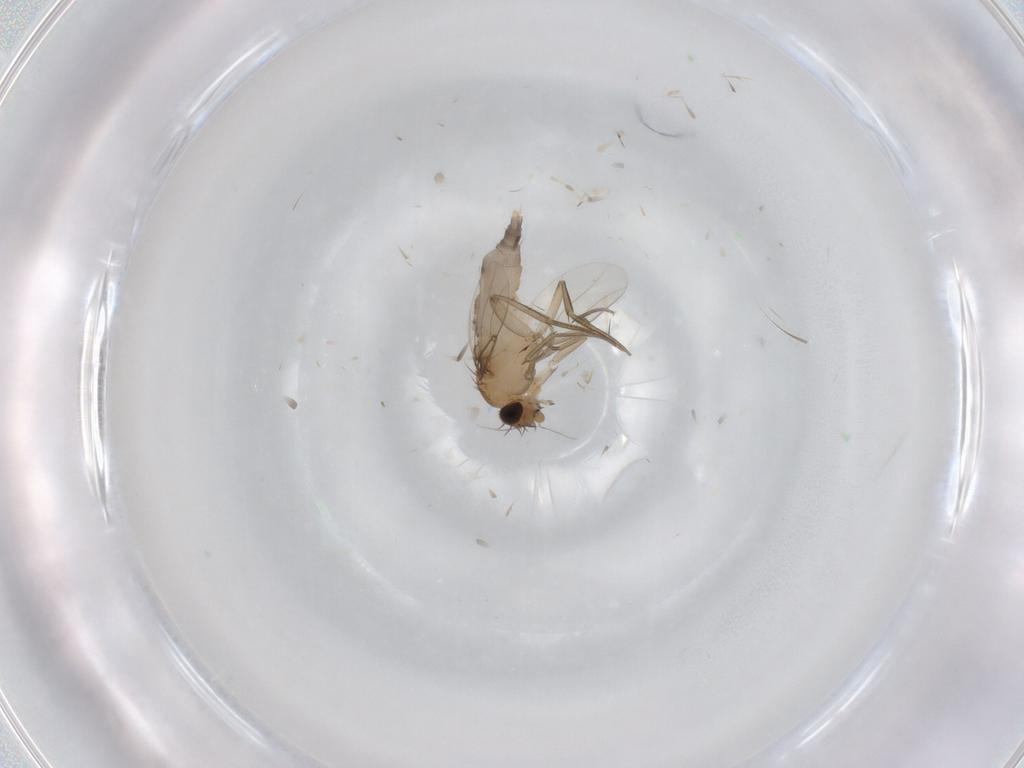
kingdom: Animalia
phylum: Arthropoda
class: Insecta
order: Diptera
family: Phoridae
